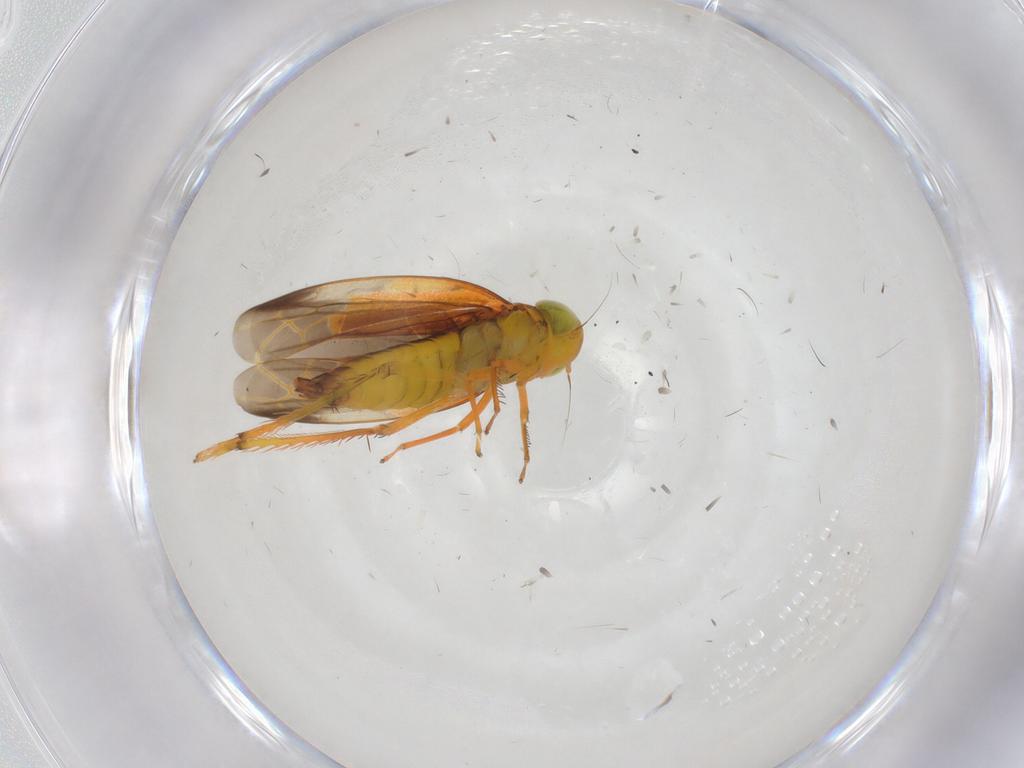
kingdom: Animalia
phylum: Arthropoda
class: Insecta
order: Hemiptera
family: Cicadellidae
